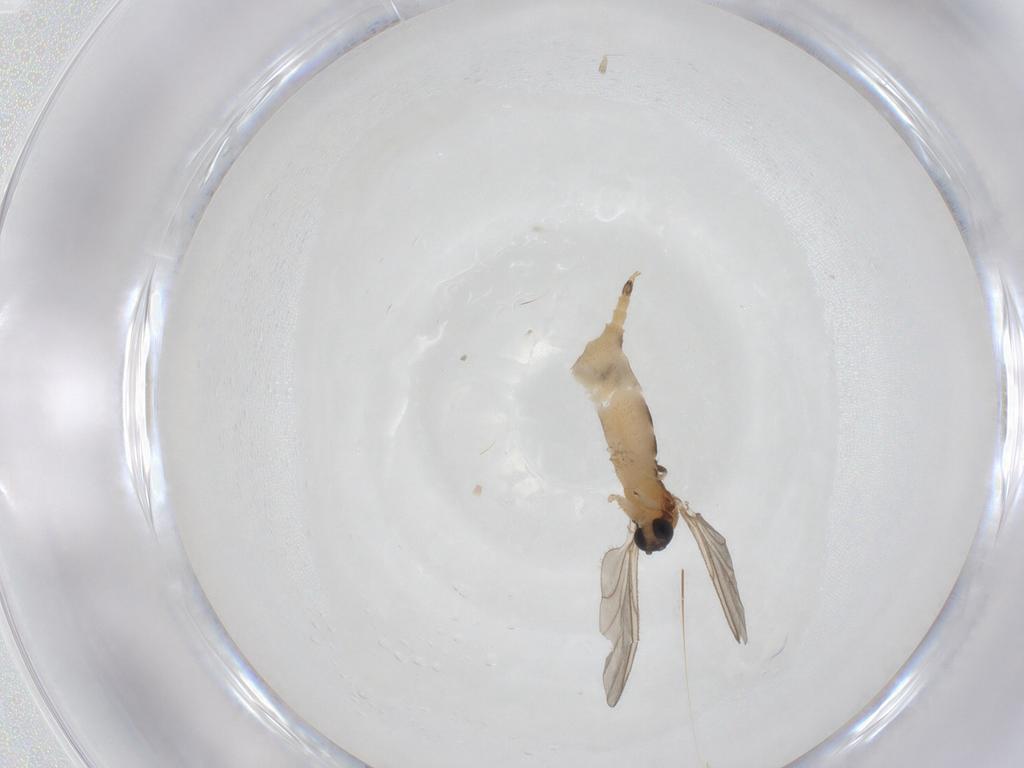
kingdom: Animalia
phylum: Arthropoda
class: Insecta
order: Diptera
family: Sciaridae
